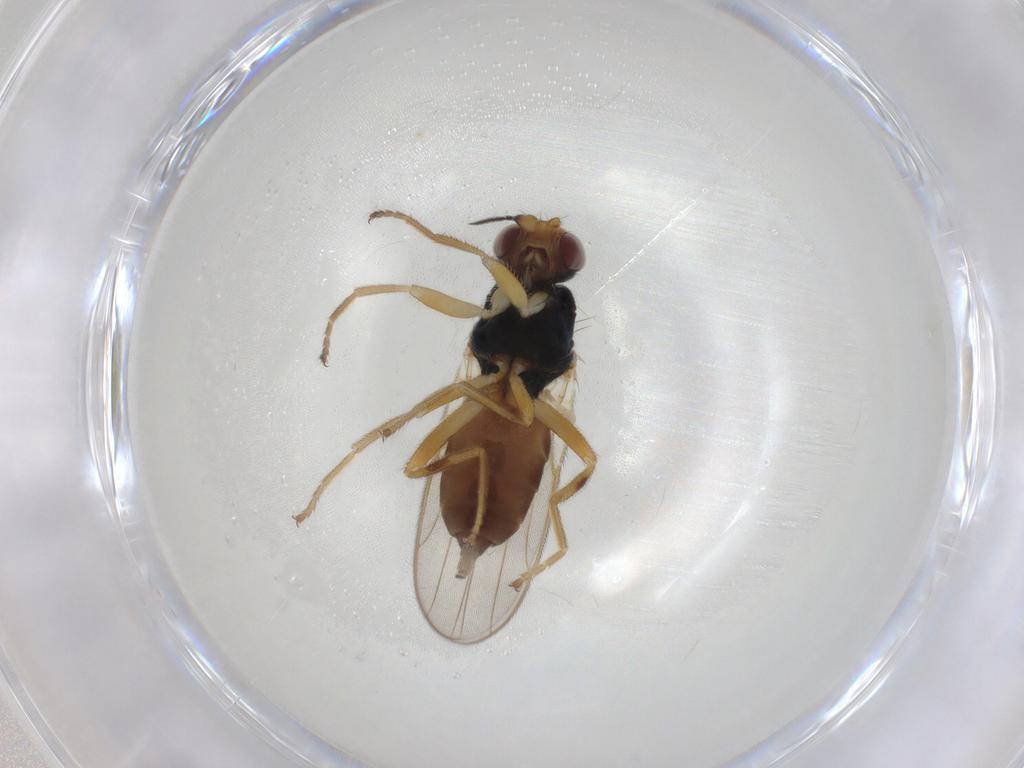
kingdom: Animalia
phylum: Arthropoda
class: Insecta
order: Diptera
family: Chloropidae
